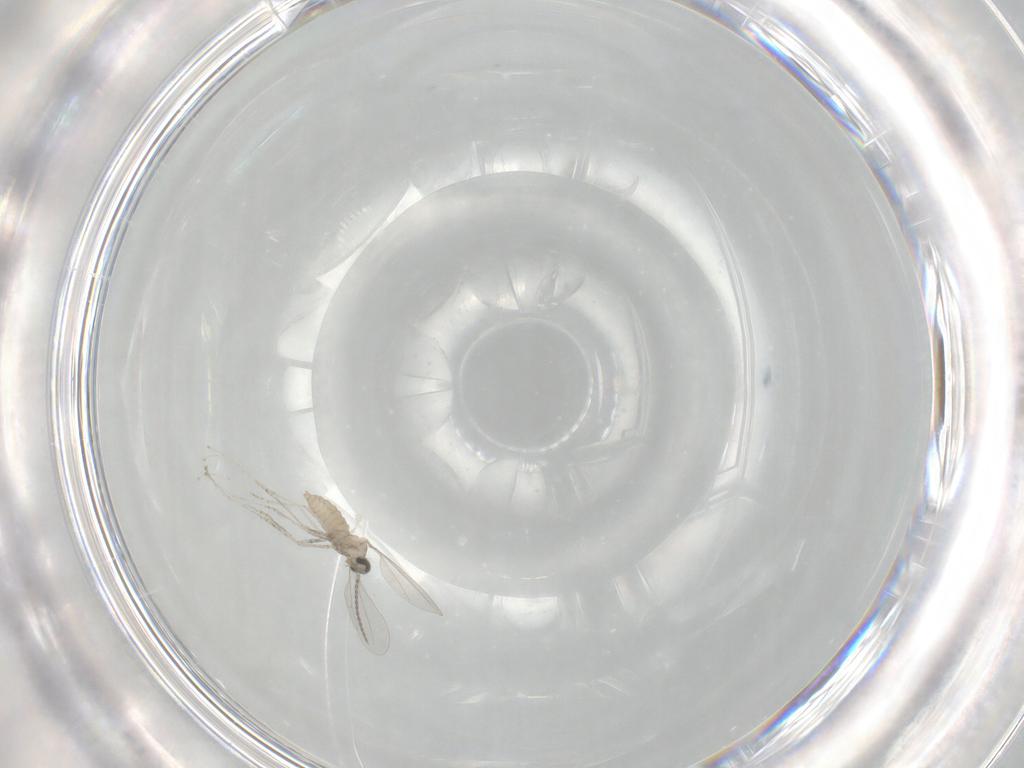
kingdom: Animalia
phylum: Arthropoda
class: Insecta
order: Diptera
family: Cecidomyiidae
